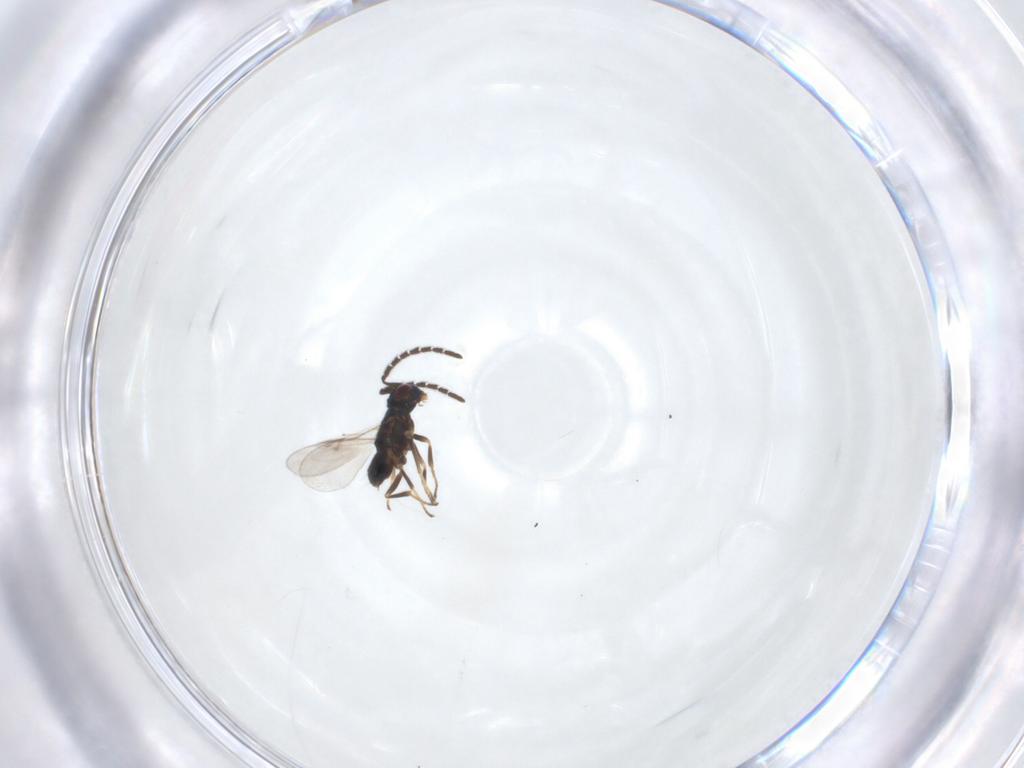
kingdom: Animalia
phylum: Arthropoda
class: Insecta
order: Hymenoptera
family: Encyrtidae
